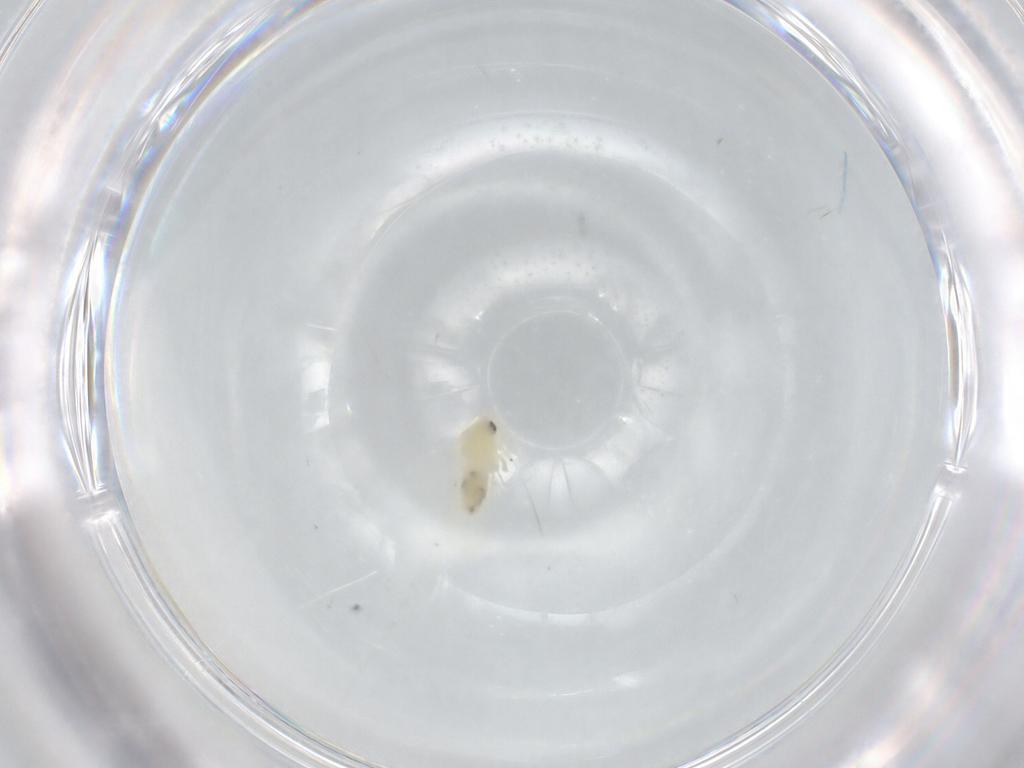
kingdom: Animalia
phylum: Arthropoda
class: Insecta
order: Hemiptera
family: Aleyrodidae
